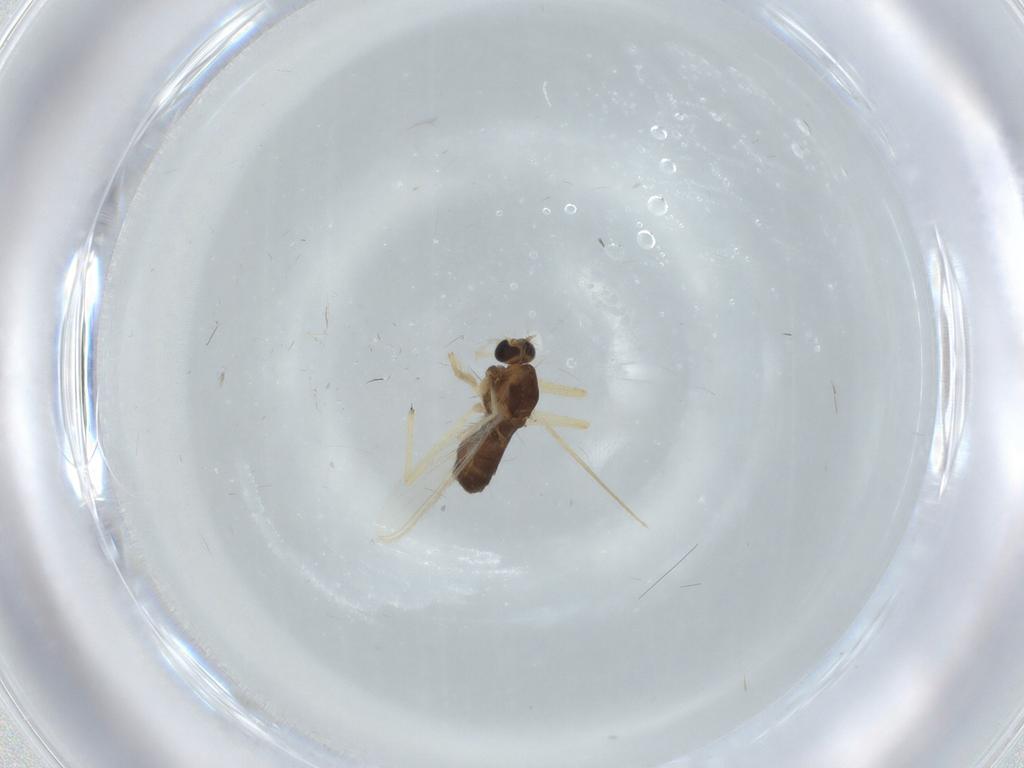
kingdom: Animalia
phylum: Arthropoda
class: Insecta
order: Diptera
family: Chironomidae
